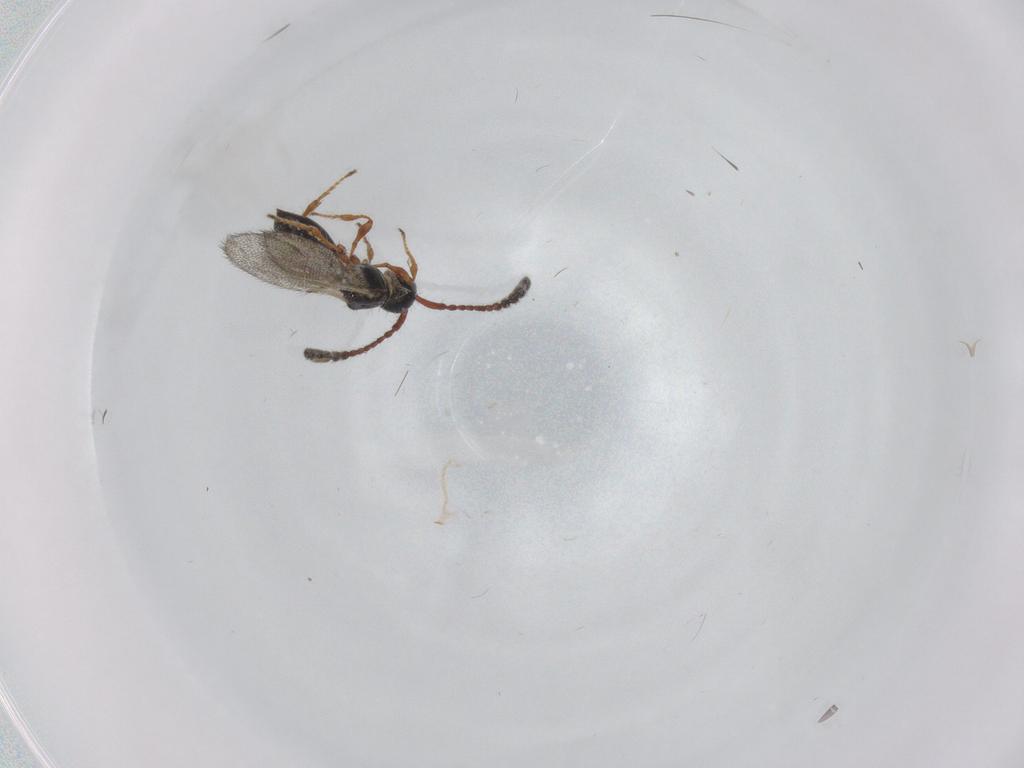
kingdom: Animalia
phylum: Arthropoda
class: Insecta
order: Hymenoptera
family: Diapriidae
